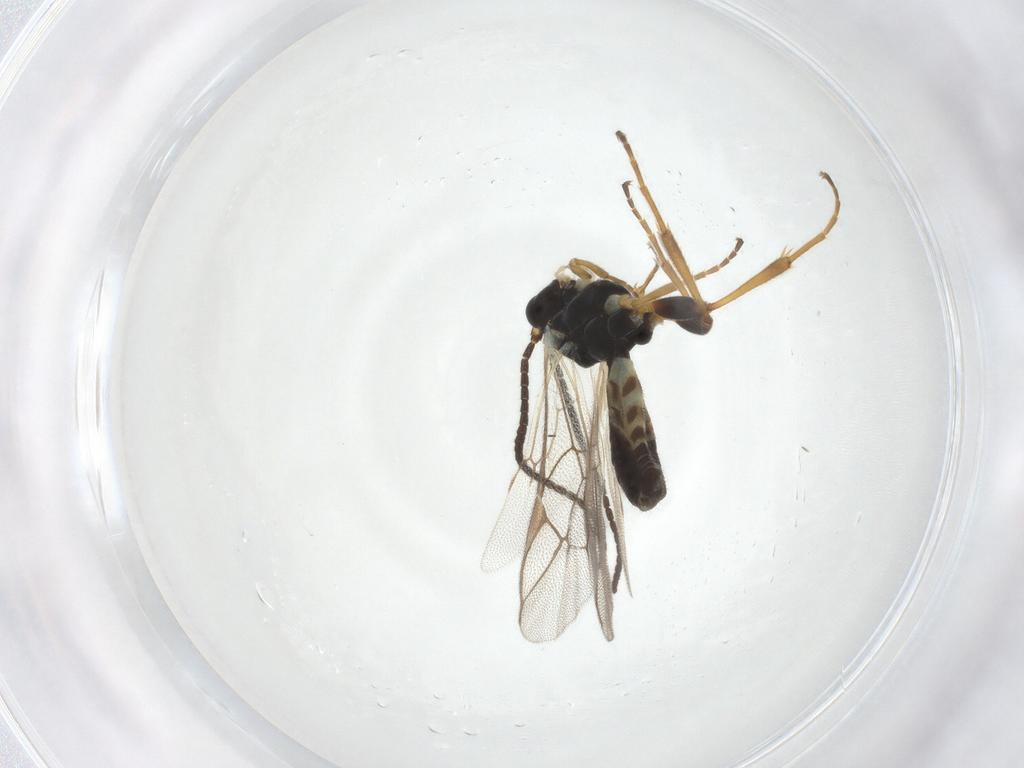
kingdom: Animalia
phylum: Arthropoda
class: Insecta
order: Hymenoptera
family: Ichneumonidae
